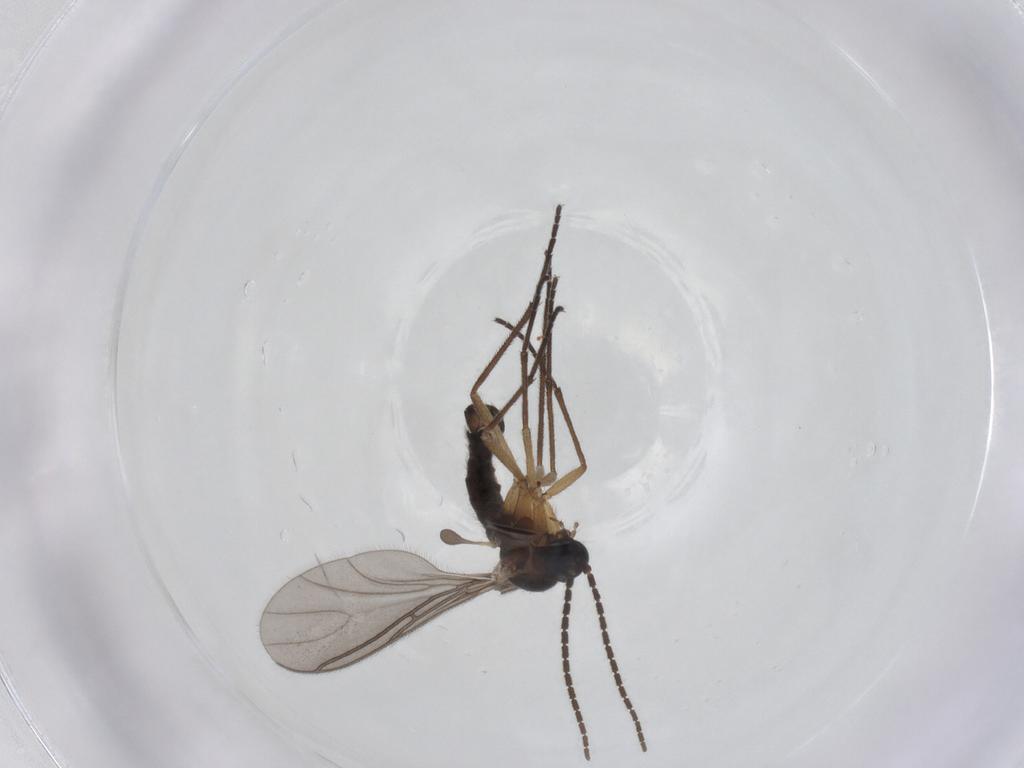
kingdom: Animalia
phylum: Arthropoda
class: Insecta
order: Diptera
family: Sciaridae
